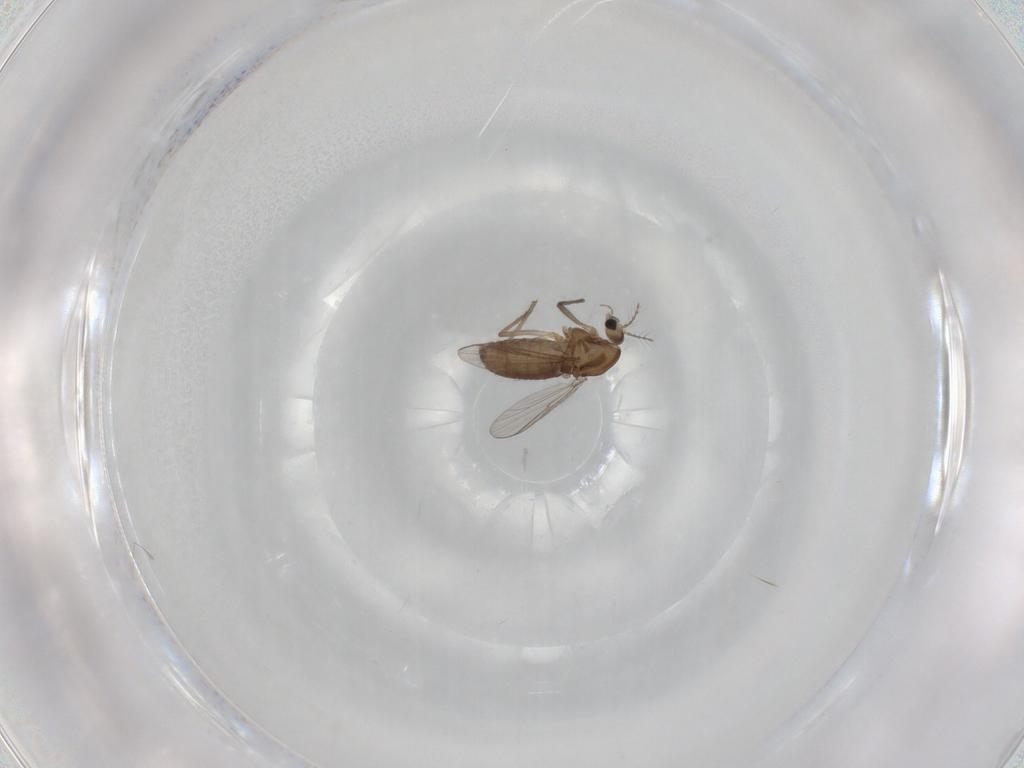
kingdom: Animalia
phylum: Arthropoda
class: Insecta
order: Diptera
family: Chironomidae
